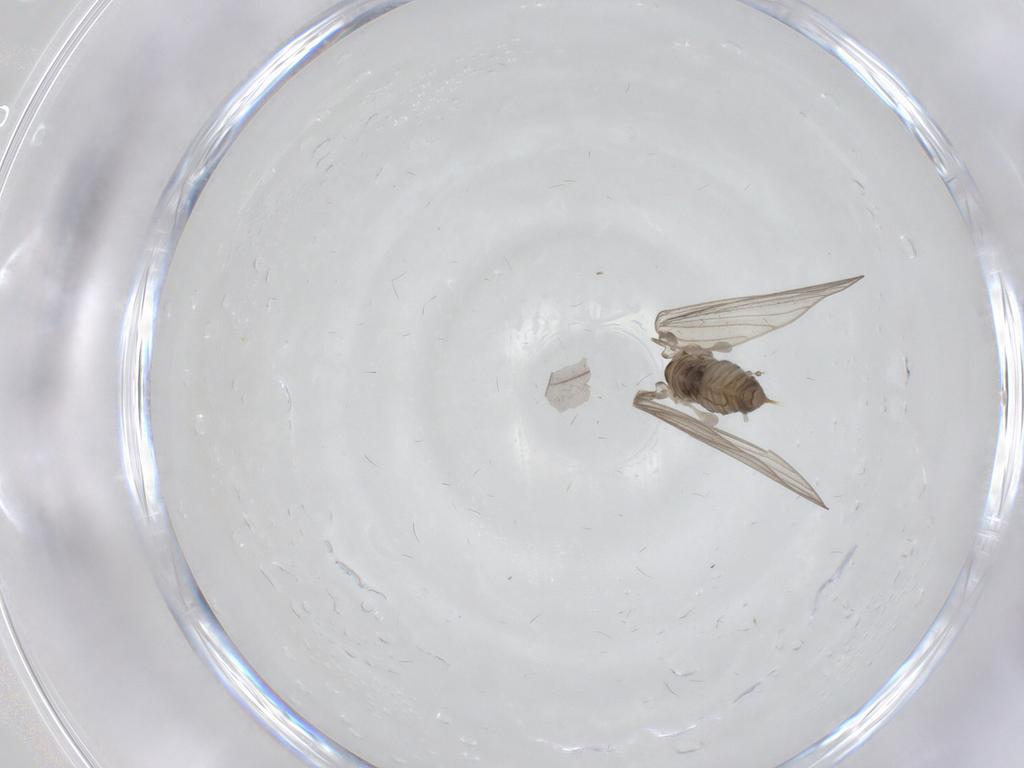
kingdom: Animalia
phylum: Arthropoda
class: Insecta
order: Diptera
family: Psychodidae
